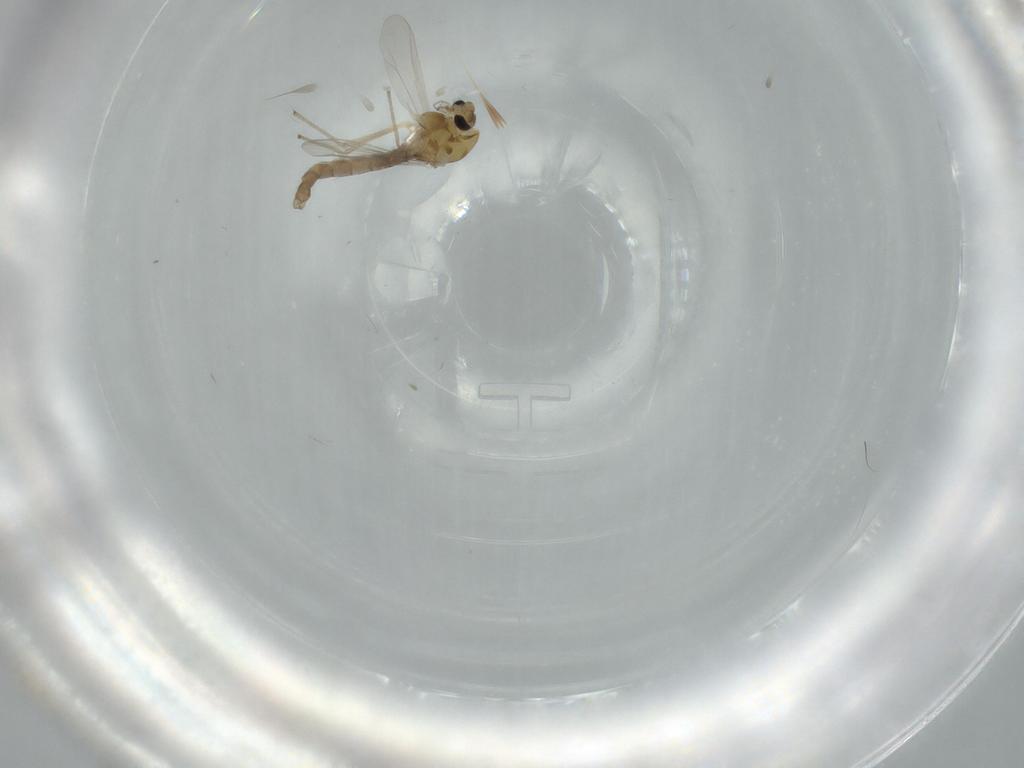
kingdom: Animalia
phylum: Arthropoda
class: Insecta
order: Diptera
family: Chironomidae
